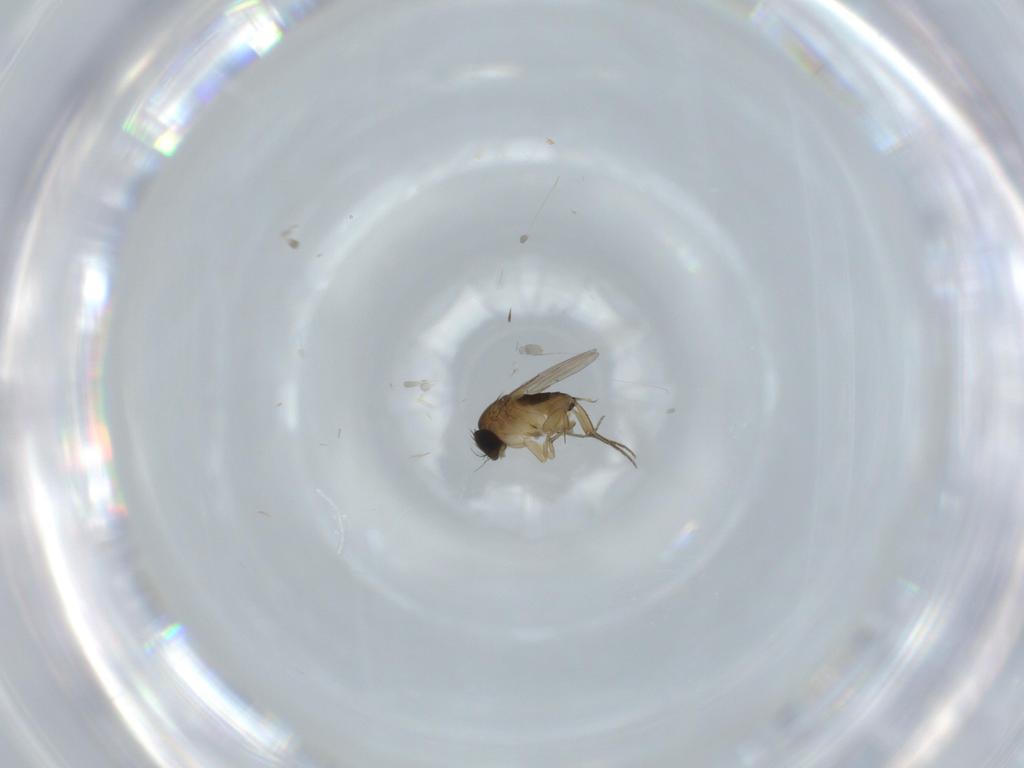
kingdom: Animalia
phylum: Arthropoda
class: Insecta
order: Diptera
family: Phoridae
